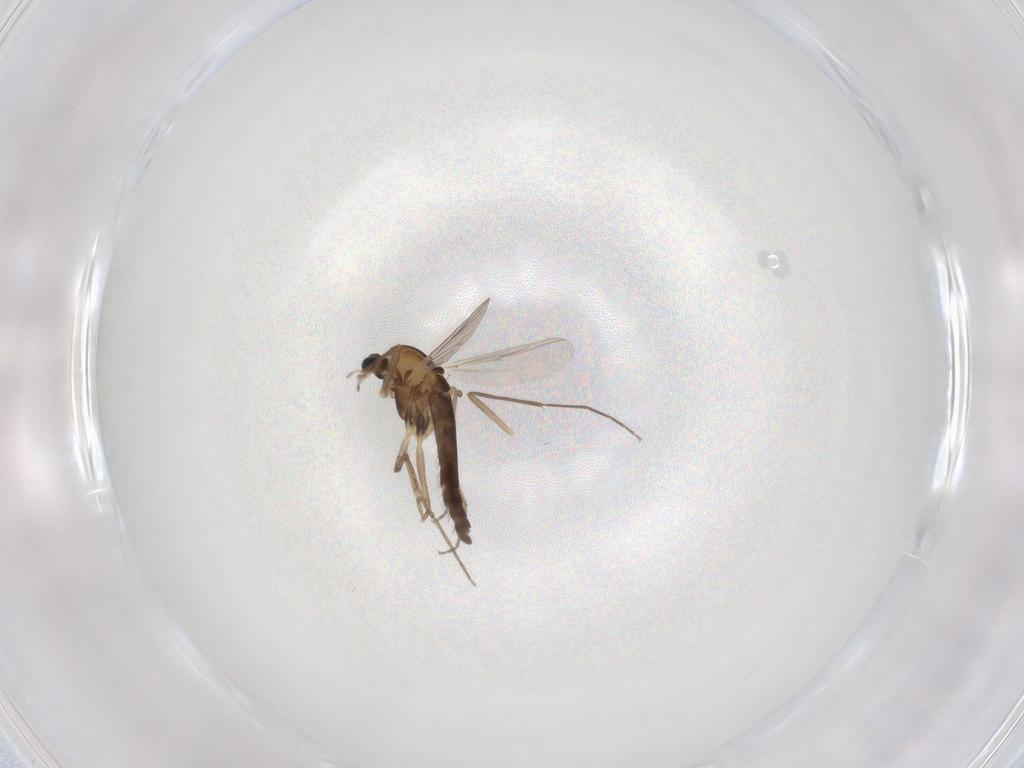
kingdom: Animalia
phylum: Arthropoda
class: Insecta
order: Diptera
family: Chironomidae
